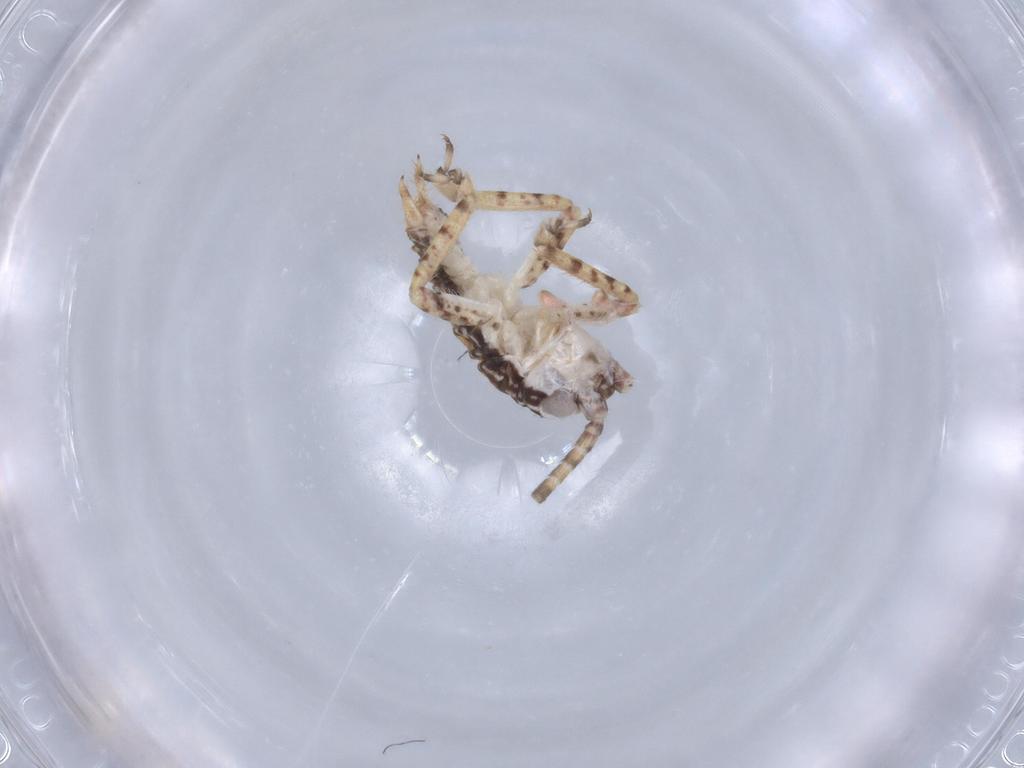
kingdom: Animalia
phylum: Arthropoda
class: Insecta
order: Orthoptera
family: Gryllidae
